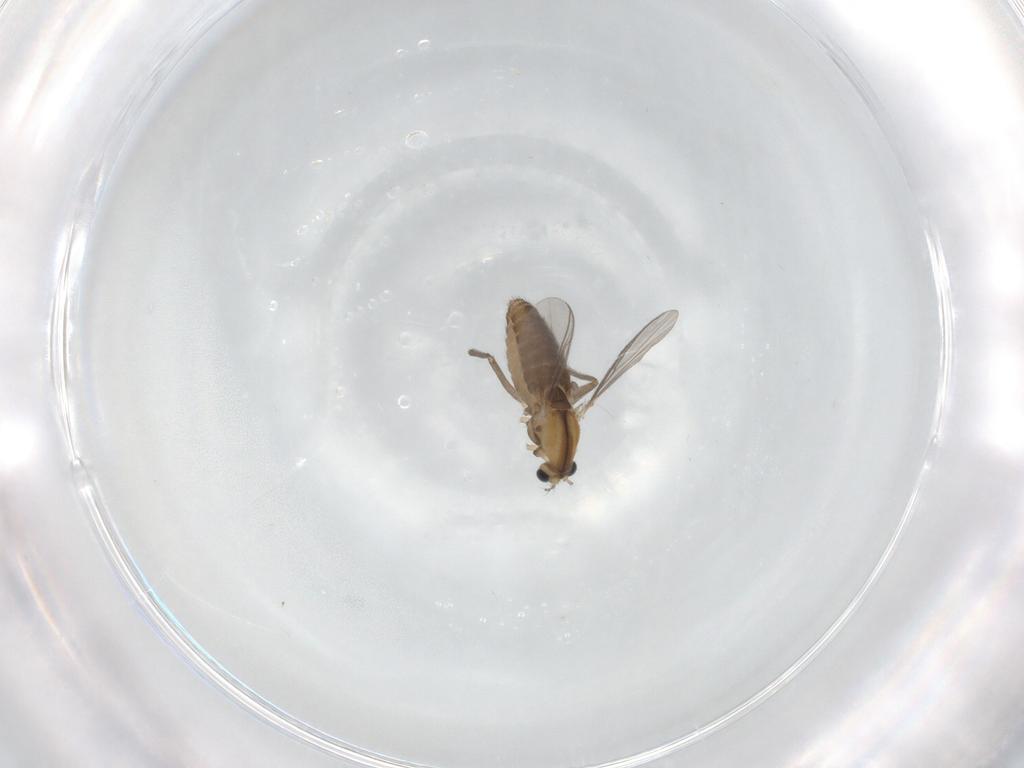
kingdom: Animalia
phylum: Arthropoda
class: Insecta
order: Diptera
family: Chironomidae
